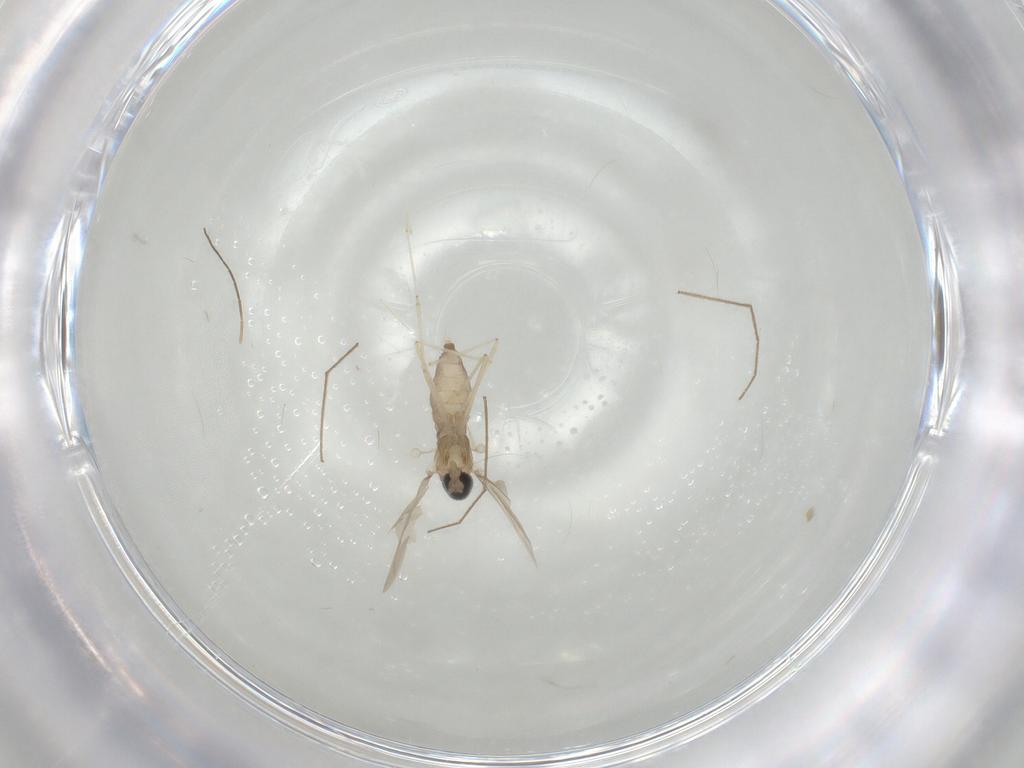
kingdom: Animalia
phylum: Arthropoda
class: Insecta
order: Diptera
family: Cecidomyiidae
